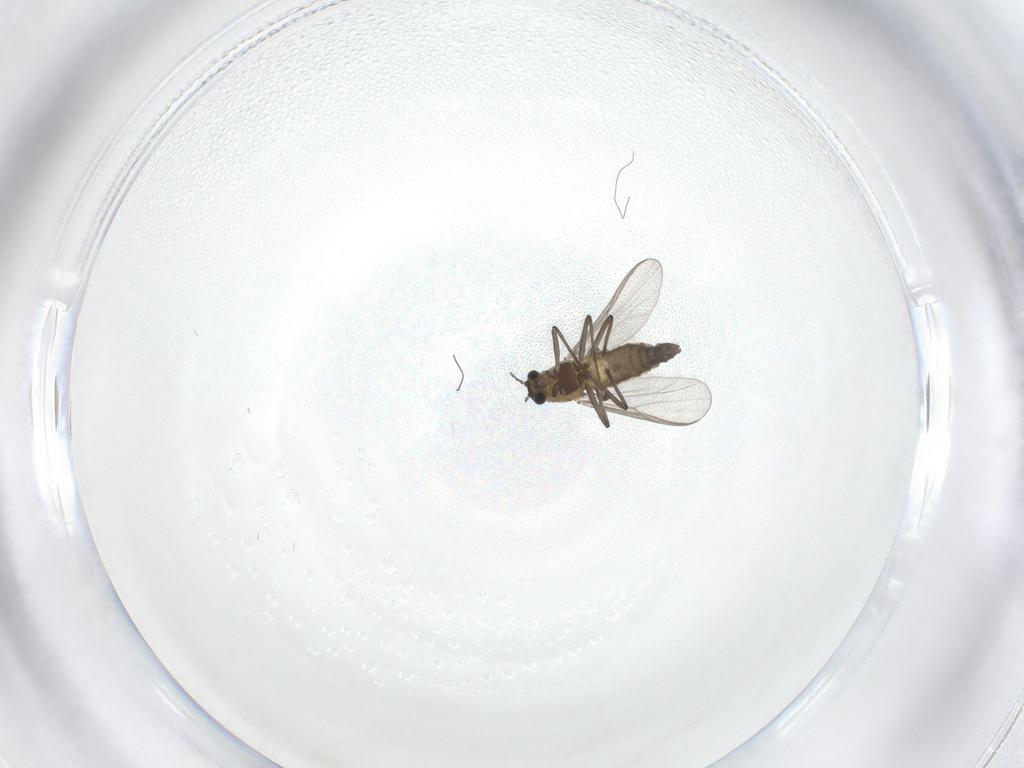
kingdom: Animalia
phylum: Arthropoda
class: Insecta
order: Diptera
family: Chironomidae
